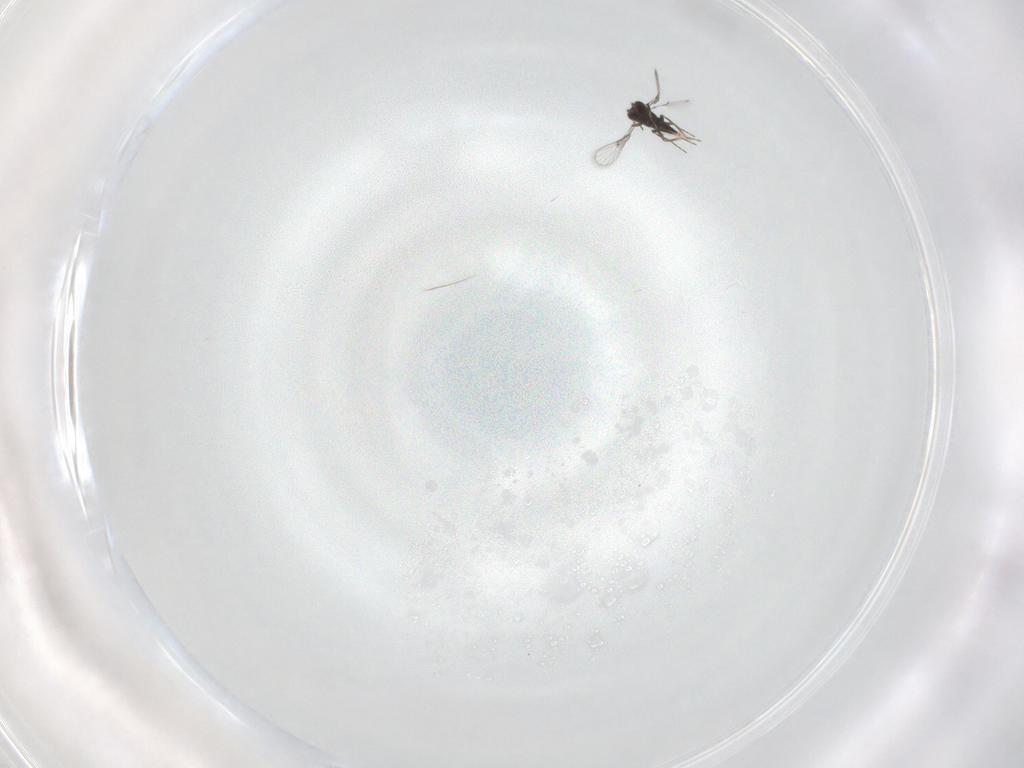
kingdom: Animalia
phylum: Arthropoda
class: Insecta
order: Hymenoptera
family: Trichogrammatidae
